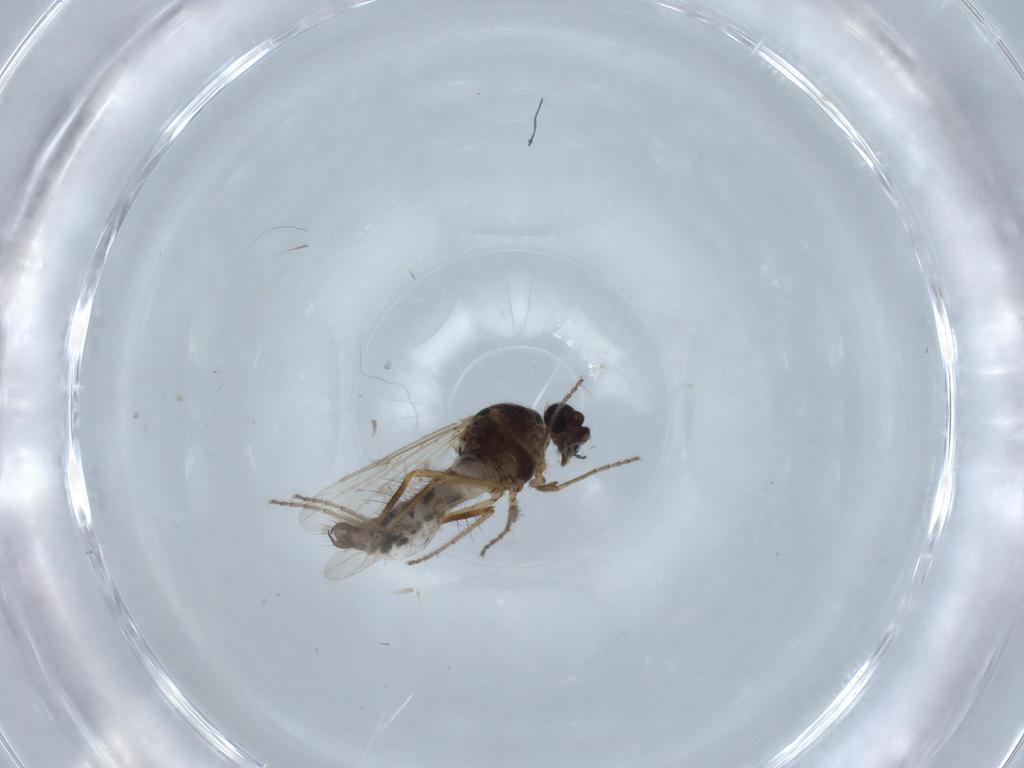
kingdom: Animalia
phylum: Arthropoda
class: Insecta
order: Diptera
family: Ceratopogonidae
